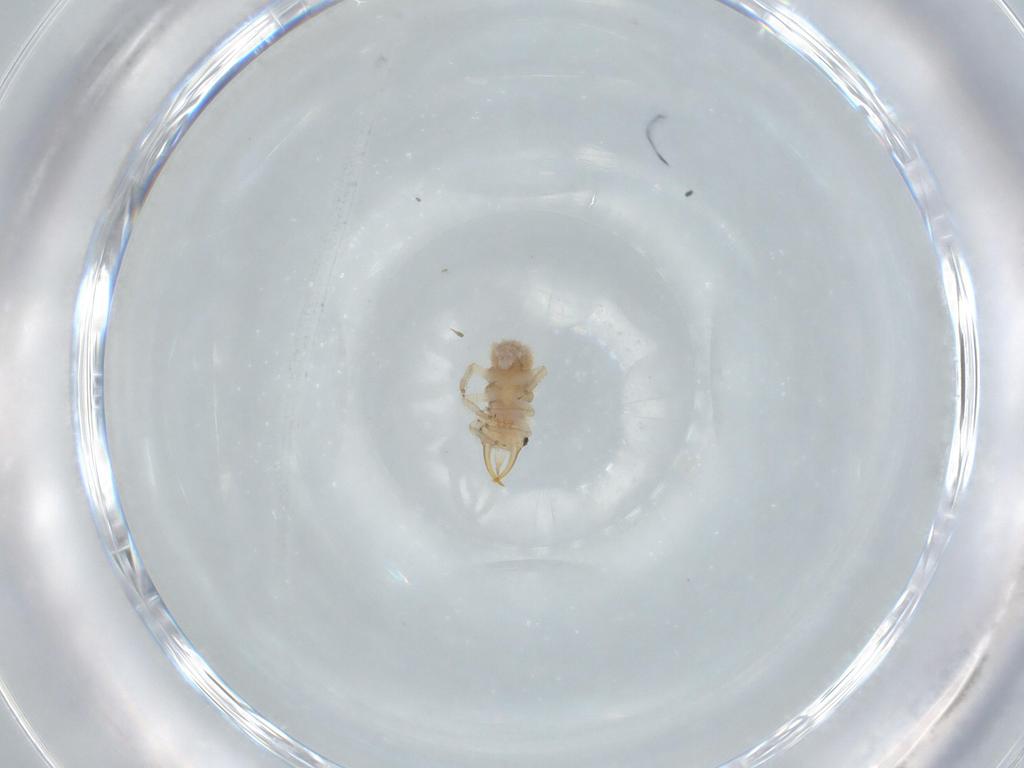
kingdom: Animalia
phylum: Arthropoda
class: Insecta
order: Neuroptera
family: Chrysopidae
